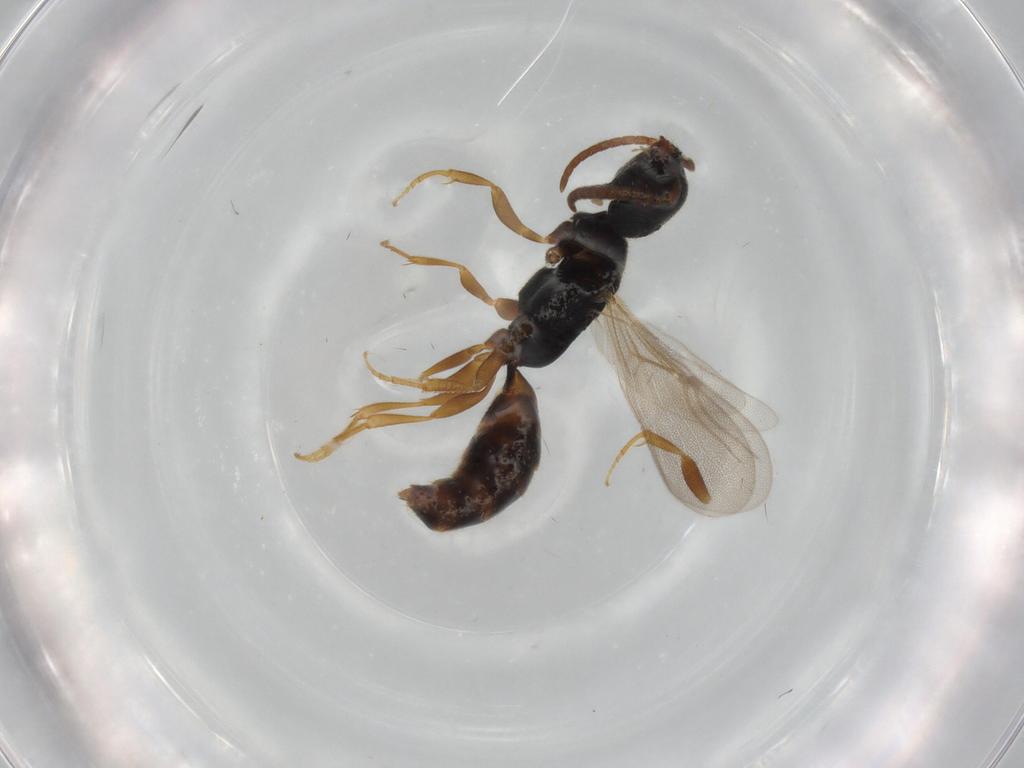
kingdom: Animalia
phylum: Arthropoda
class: Insecta
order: Hymenoptera
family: Bethylidae
